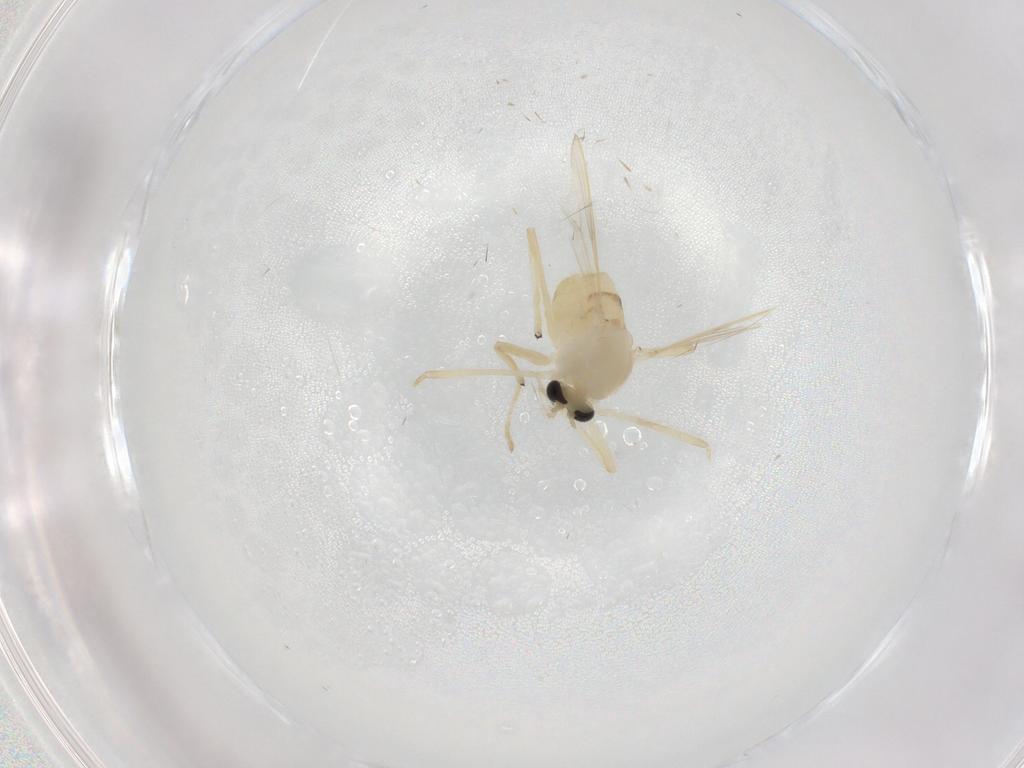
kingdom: Animalia
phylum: Arthropoda
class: Insecta
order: Diptera
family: Chironomidae
